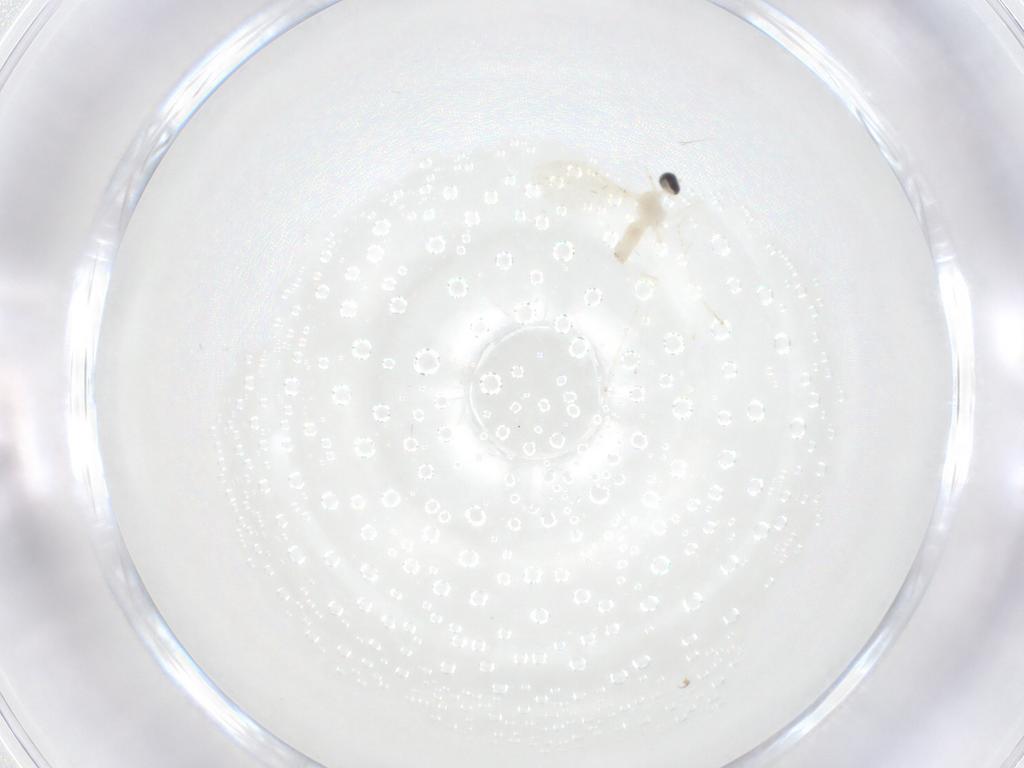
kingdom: Animalia
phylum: Arthropoda
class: Insecta
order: Diptera
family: Cecidomyiidae
